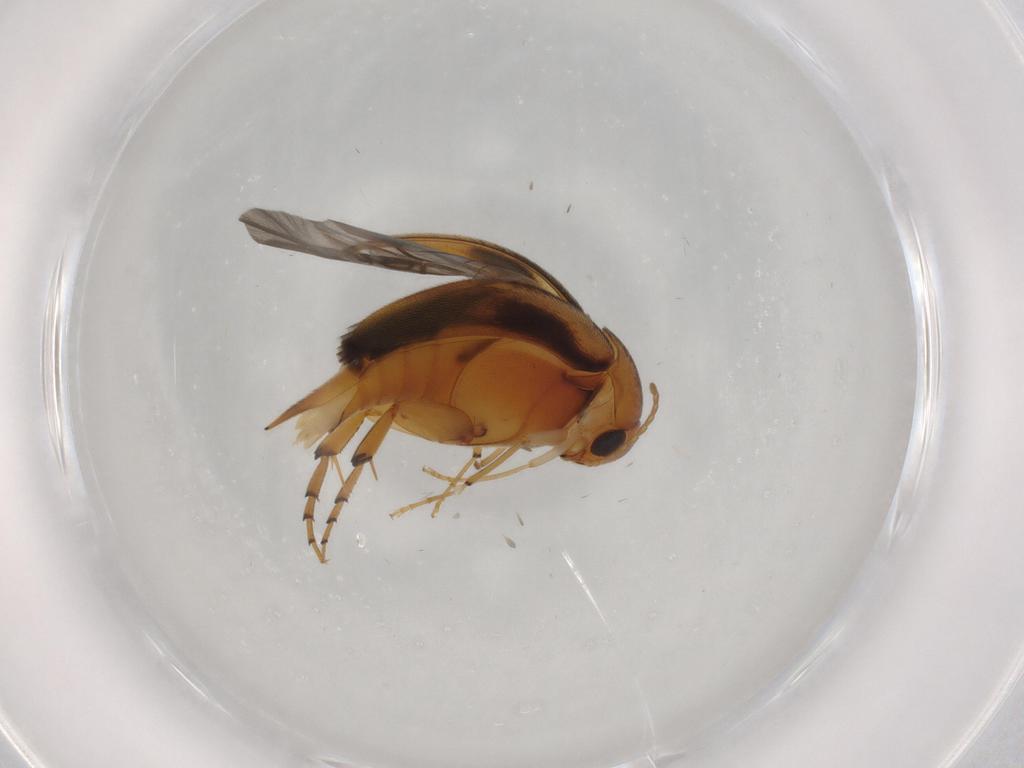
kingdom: Animalia
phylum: Arthropoda
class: Insecta
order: Coleoptera
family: Mordellidae
